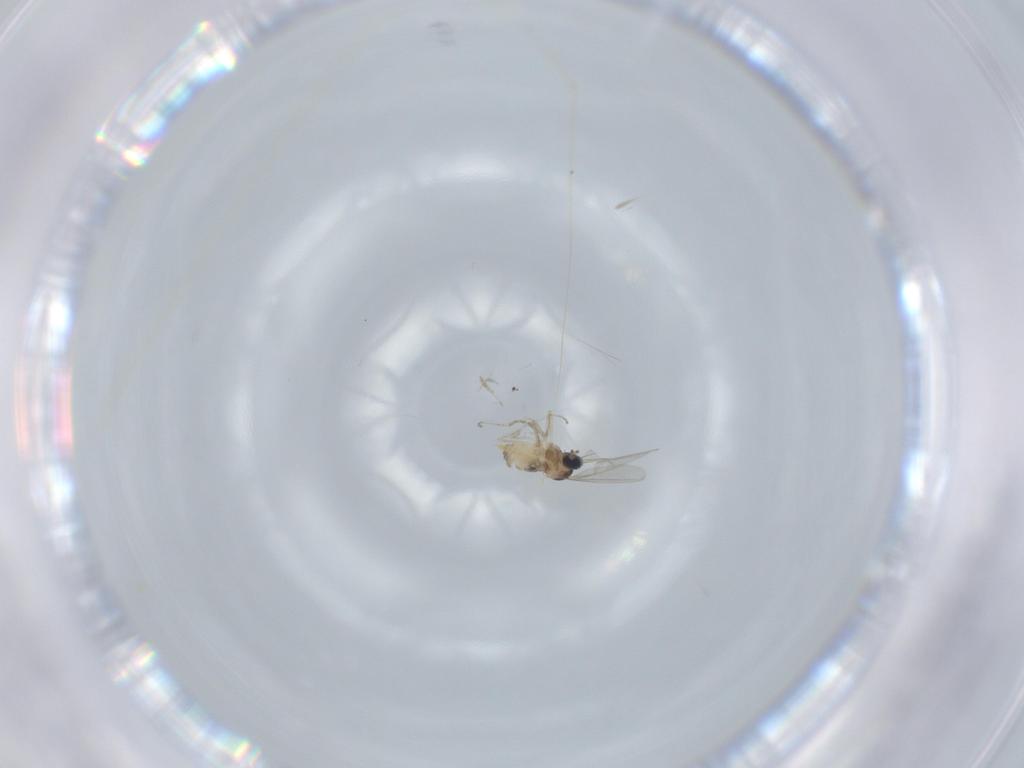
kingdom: Animalia
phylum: Arthropoda
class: Insecta
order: Diptera
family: Cecidomyiidae
